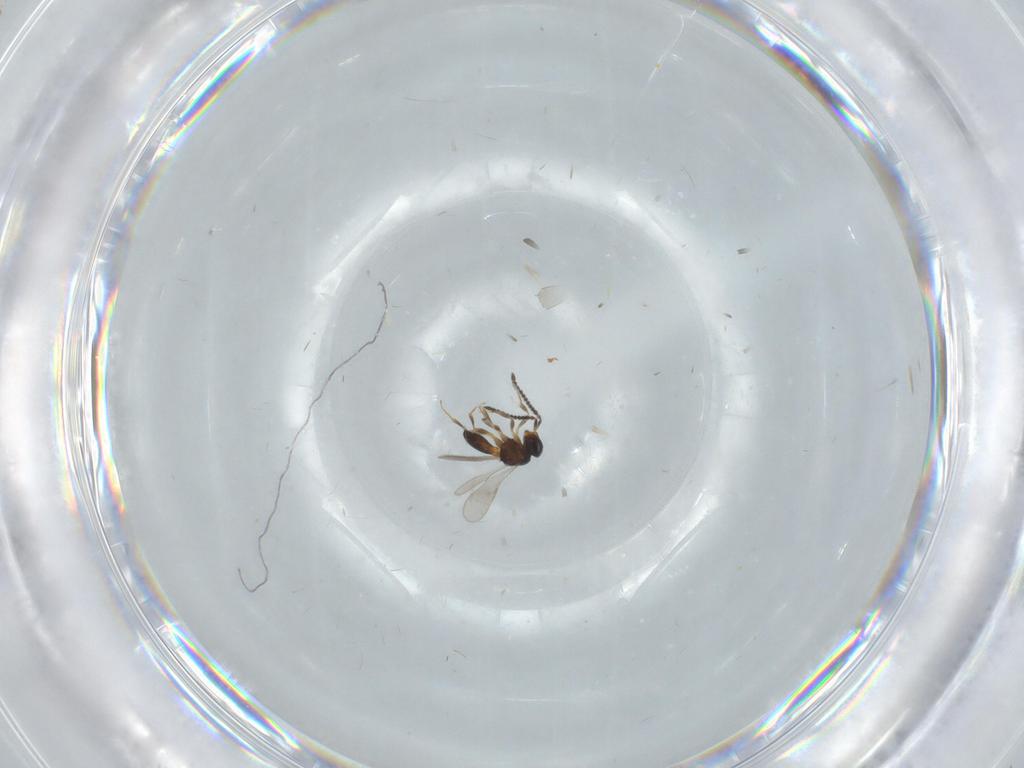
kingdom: Animalia
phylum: Arthropoda
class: Insecta
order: Hymenoptera
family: Scelionidae
